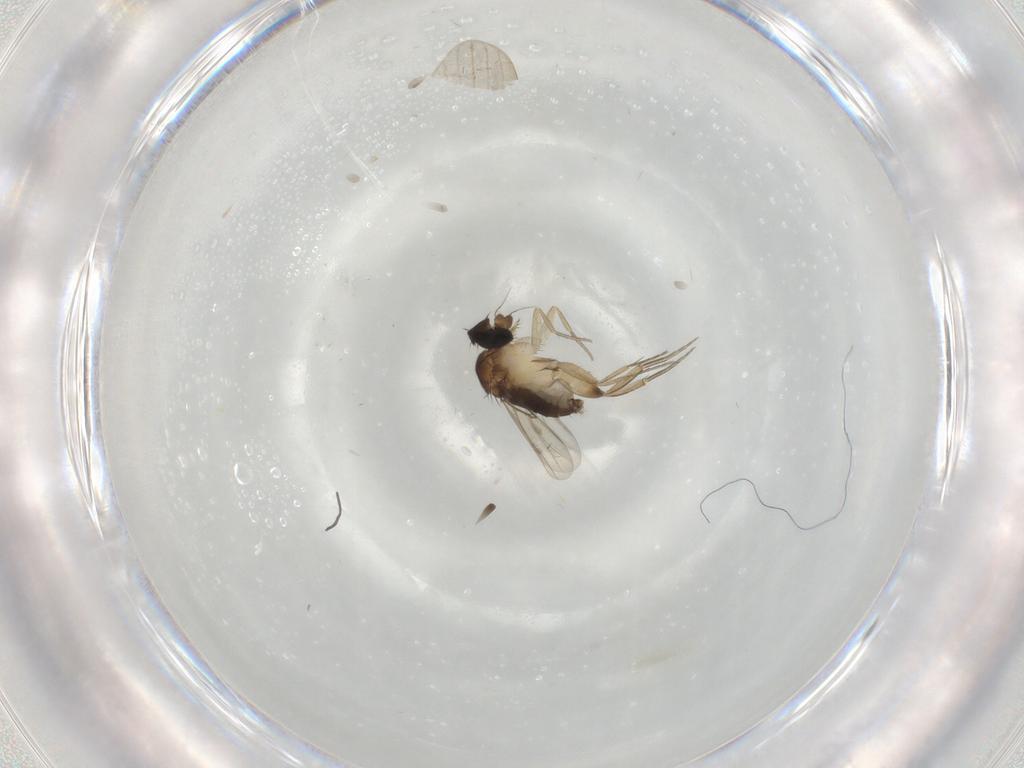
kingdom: Animalia
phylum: Arthropoda
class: Insecta
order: Diptera
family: Phoridae
